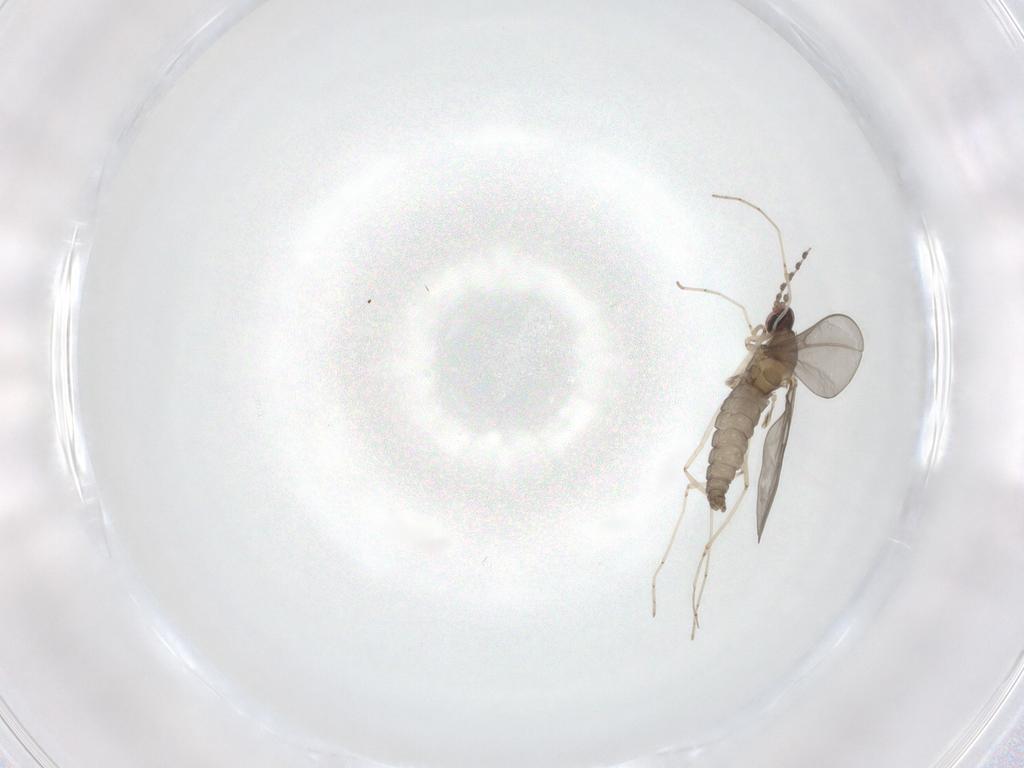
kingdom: Animalia
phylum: Arthropoda
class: Insecta
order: Diptera
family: Cecidomyiidae
